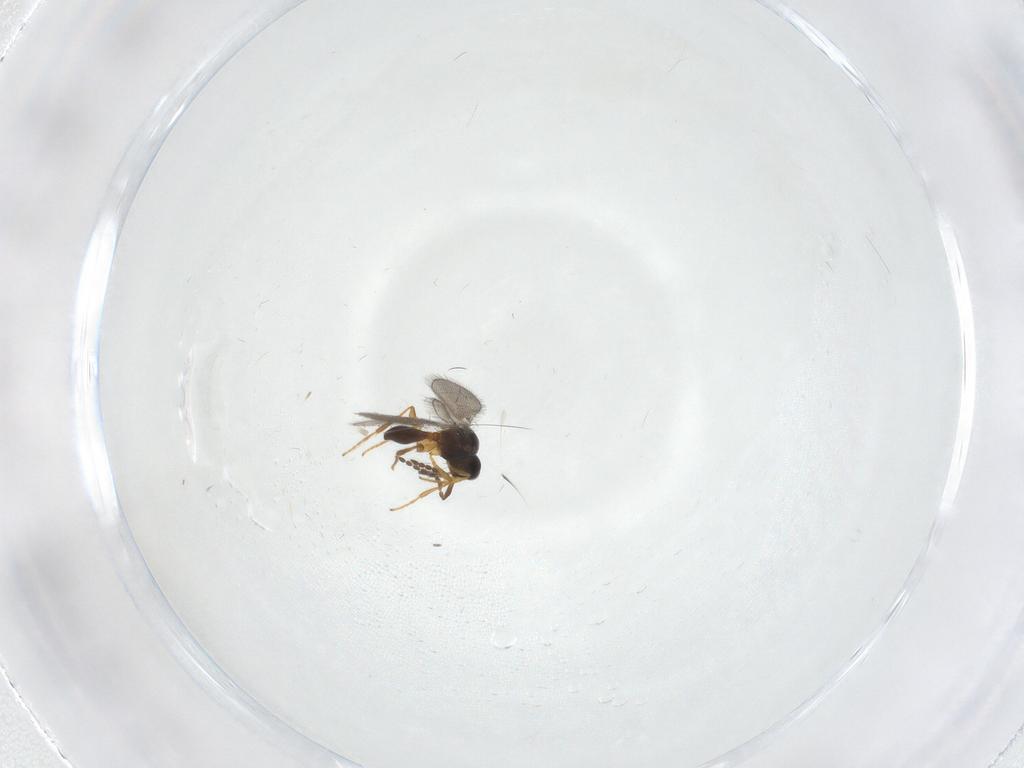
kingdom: Animalia
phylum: Arthropoda
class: Insecta
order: Hymenoptera
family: Platygastridae
